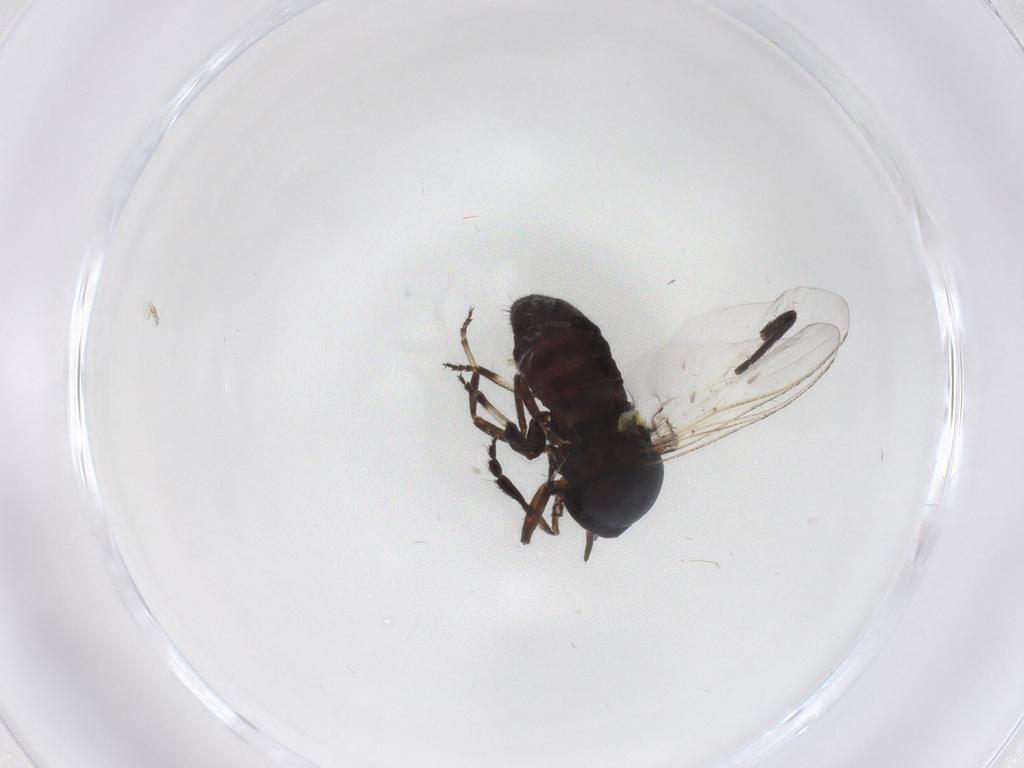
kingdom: Animalia
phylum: Arthropoda
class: Insecta
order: Diptera
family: Simuliidae
